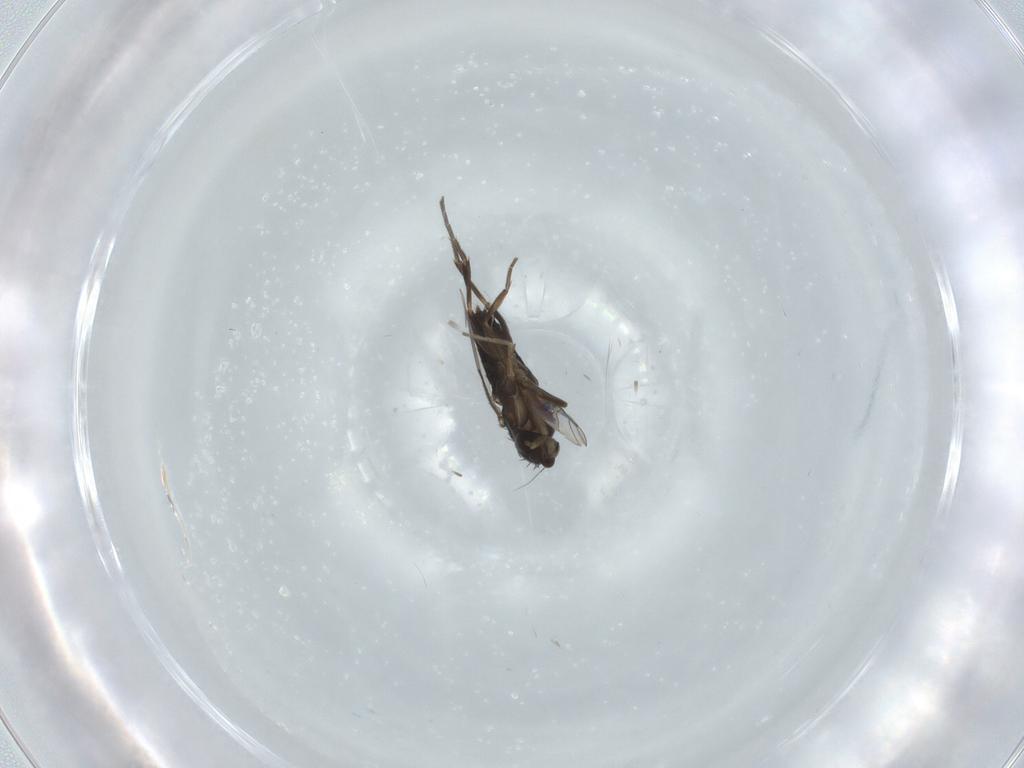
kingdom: Animalia
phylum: Arthropoda
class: Insecta
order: Diptera
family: Phoridae
